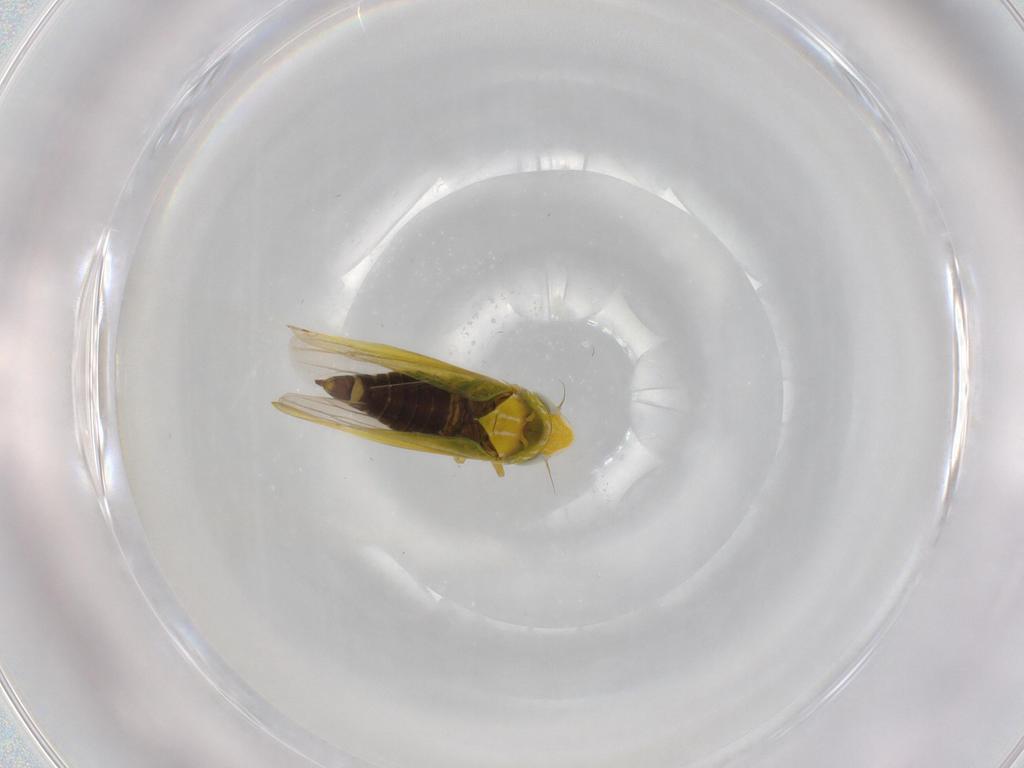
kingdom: Animalia
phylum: Arthropoda
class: Insecta
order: Hemiptera
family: Cicadellidae
